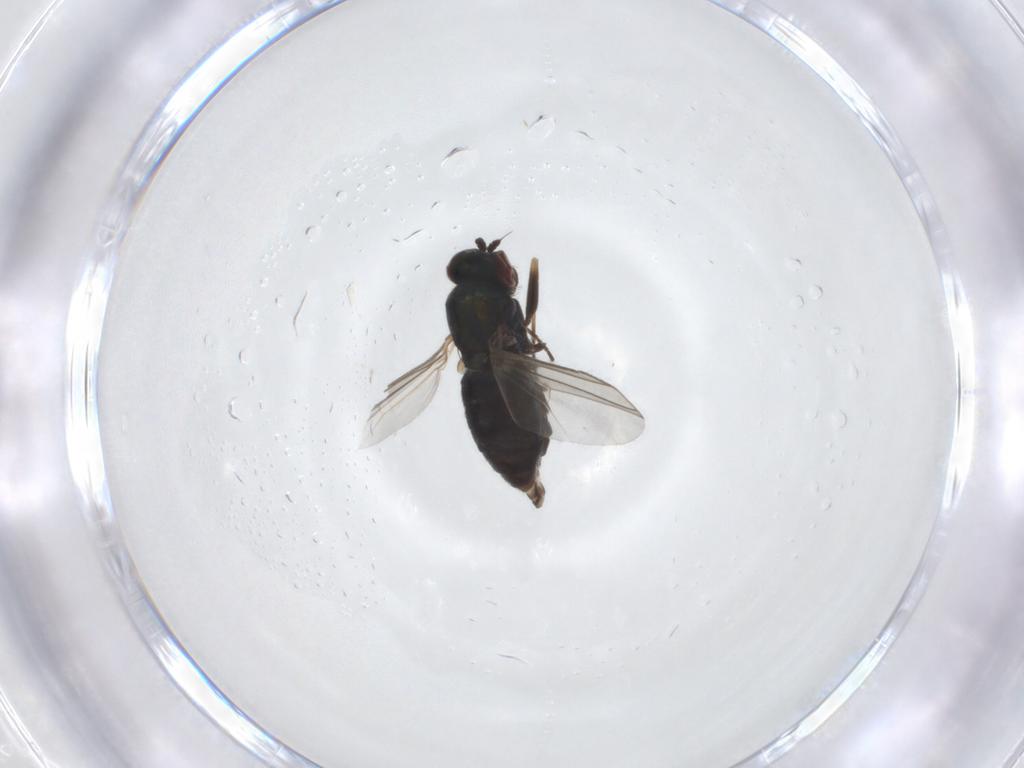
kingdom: Animalia
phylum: Arthropoda
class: Insecta
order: Diptera
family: Dolichopodidae
